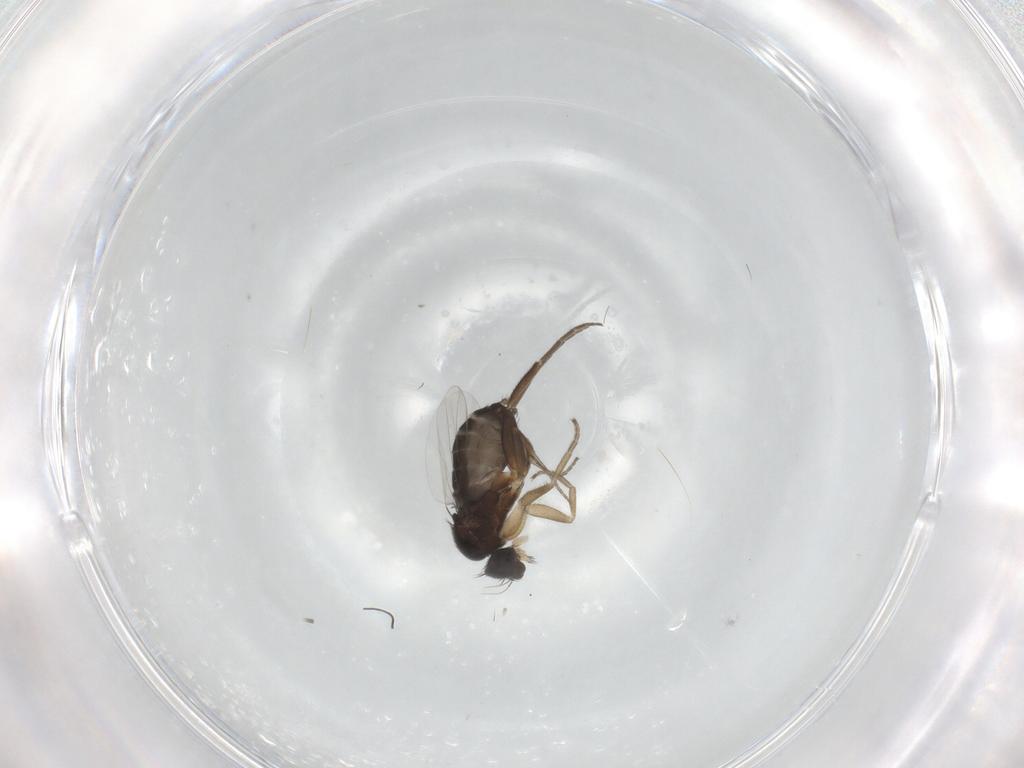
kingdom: Animalia
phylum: Arthropoda
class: Insecta
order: Diptera
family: Phoridae
